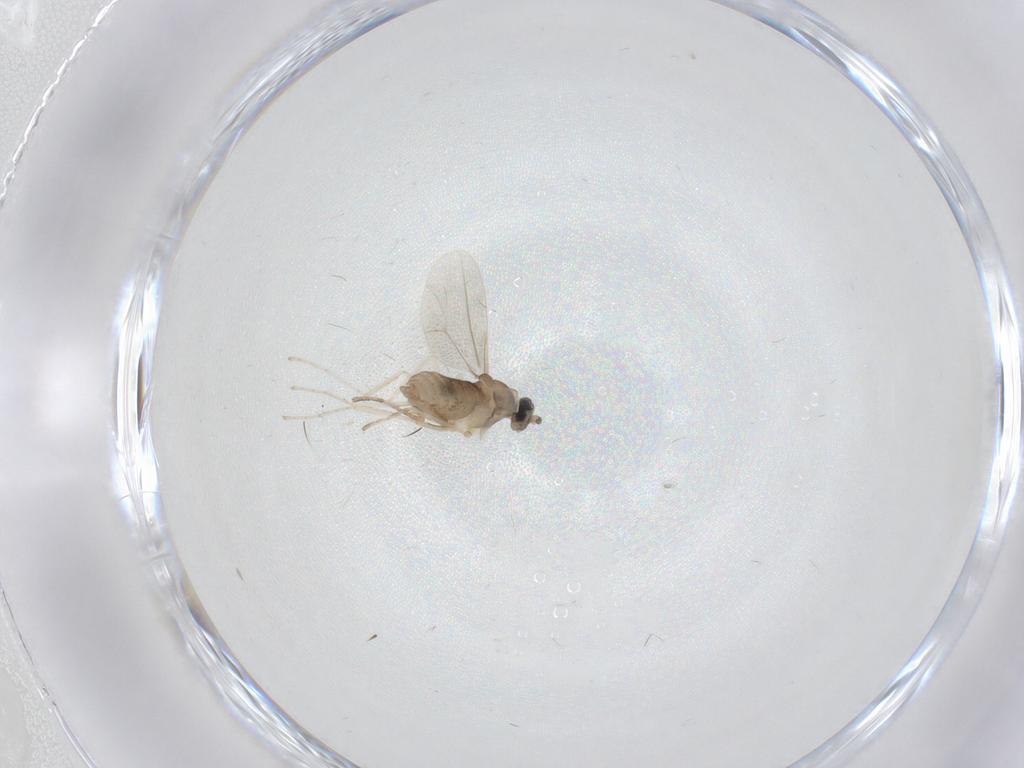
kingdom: Animalia
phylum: Arthropoda
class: Insecta
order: Diptera
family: Cecidomyiidae
